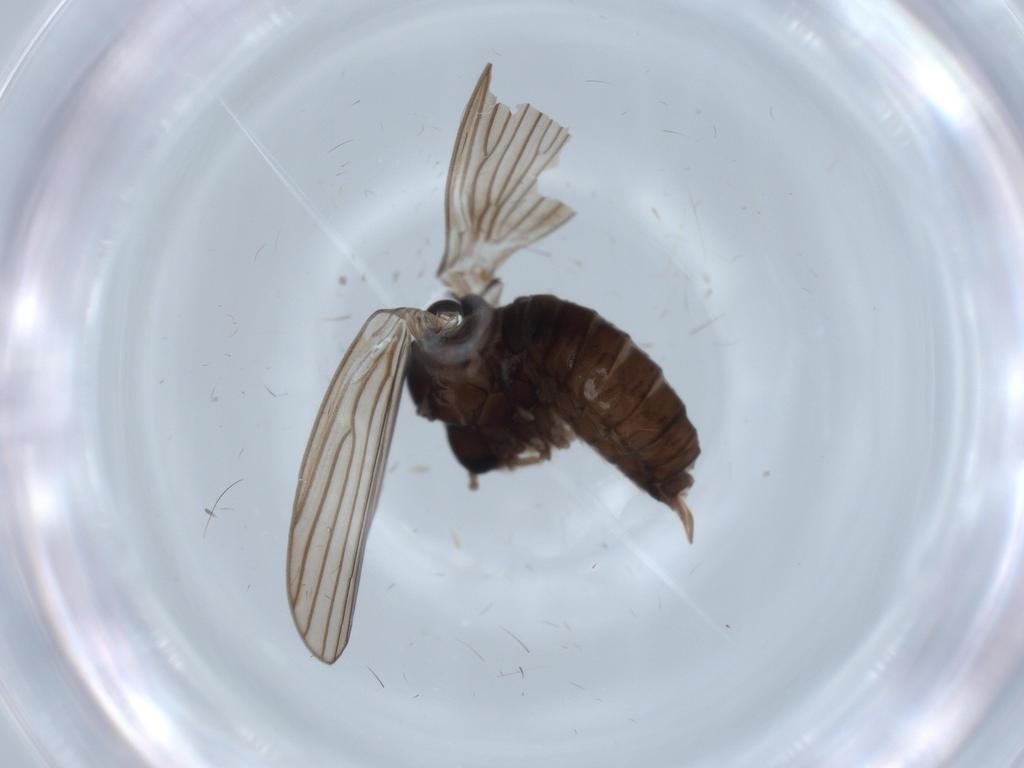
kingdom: Animalia
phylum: Arthropoda
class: Insecta
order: Diptera
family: Psychodidae
